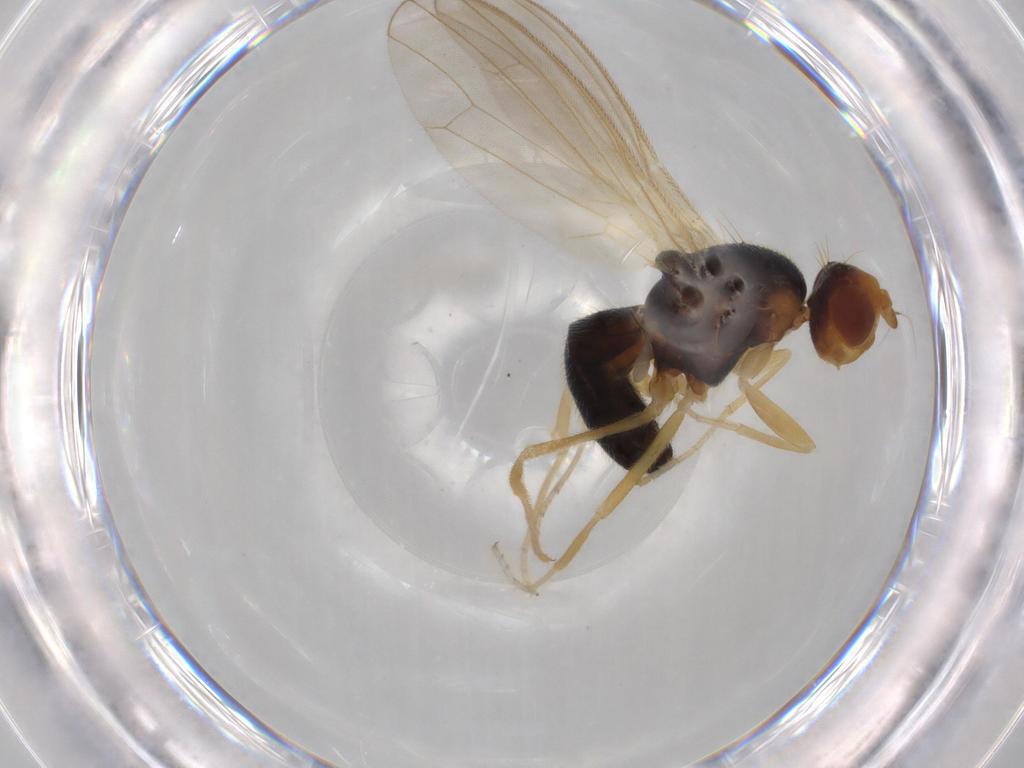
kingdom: Animalia
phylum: Arthropoda
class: Insecta
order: Diptera
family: Psilidae
